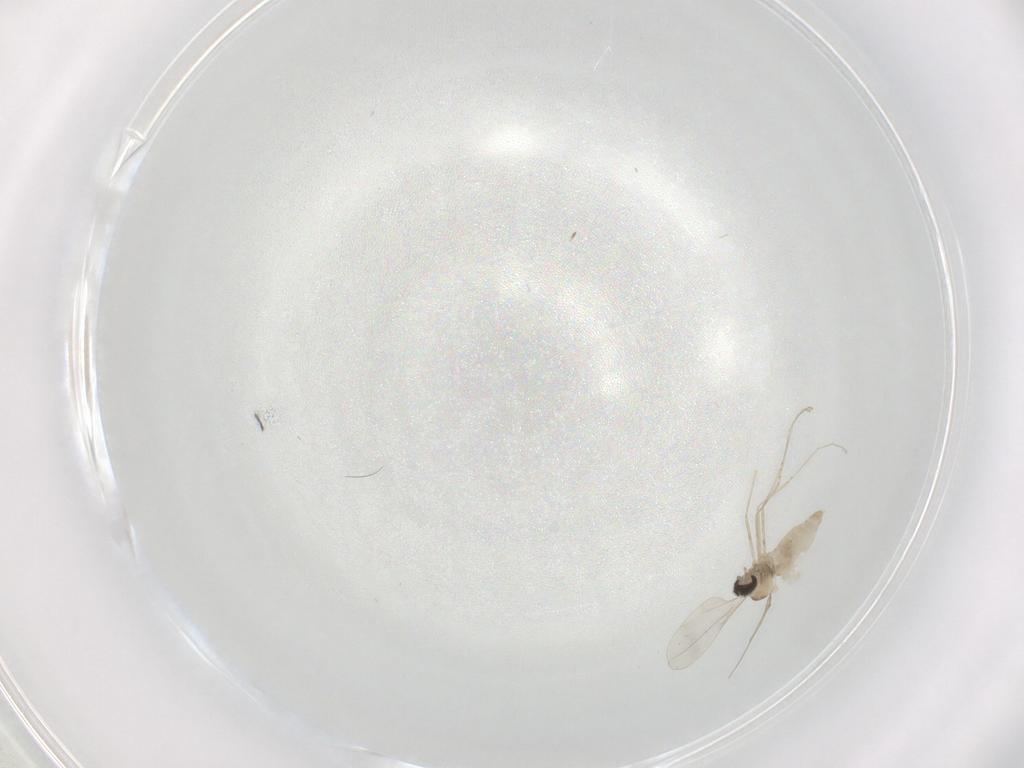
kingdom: Animalia
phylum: Arthropoda
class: Insecta
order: Diptera
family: Cecidomyiidae
